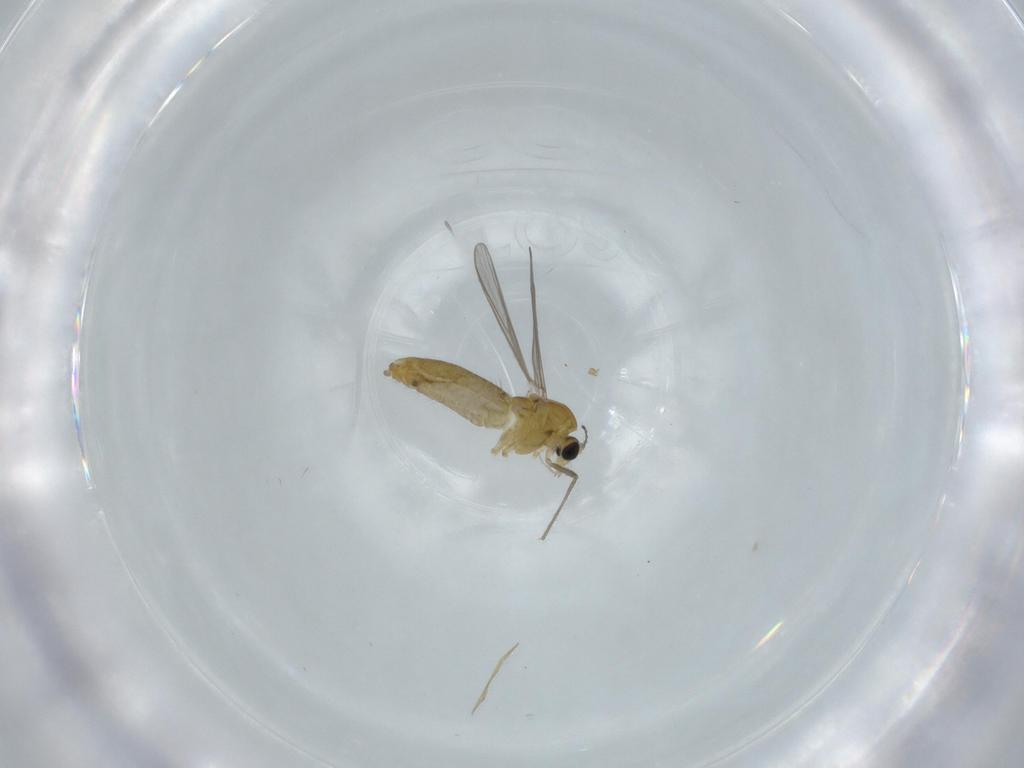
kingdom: Animalia
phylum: Arthropoda
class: Insecta
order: Diptera
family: Chironomidae
